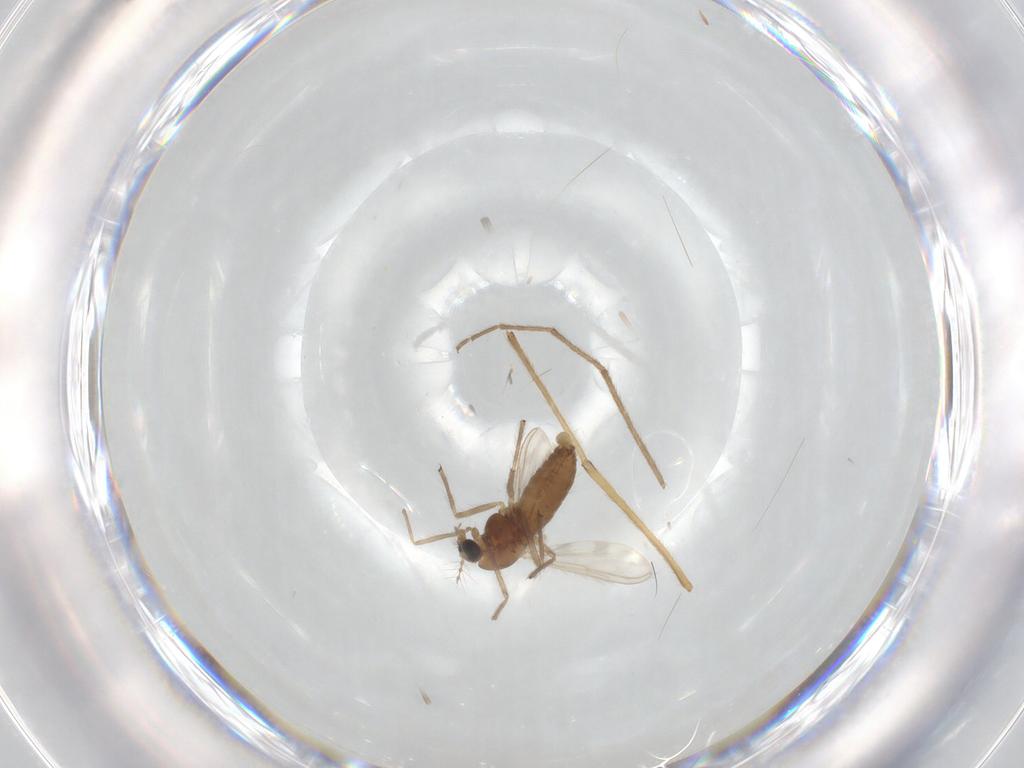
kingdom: Animalia
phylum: Arthropoda
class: Insecta
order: Diptera
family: Chironomidae
